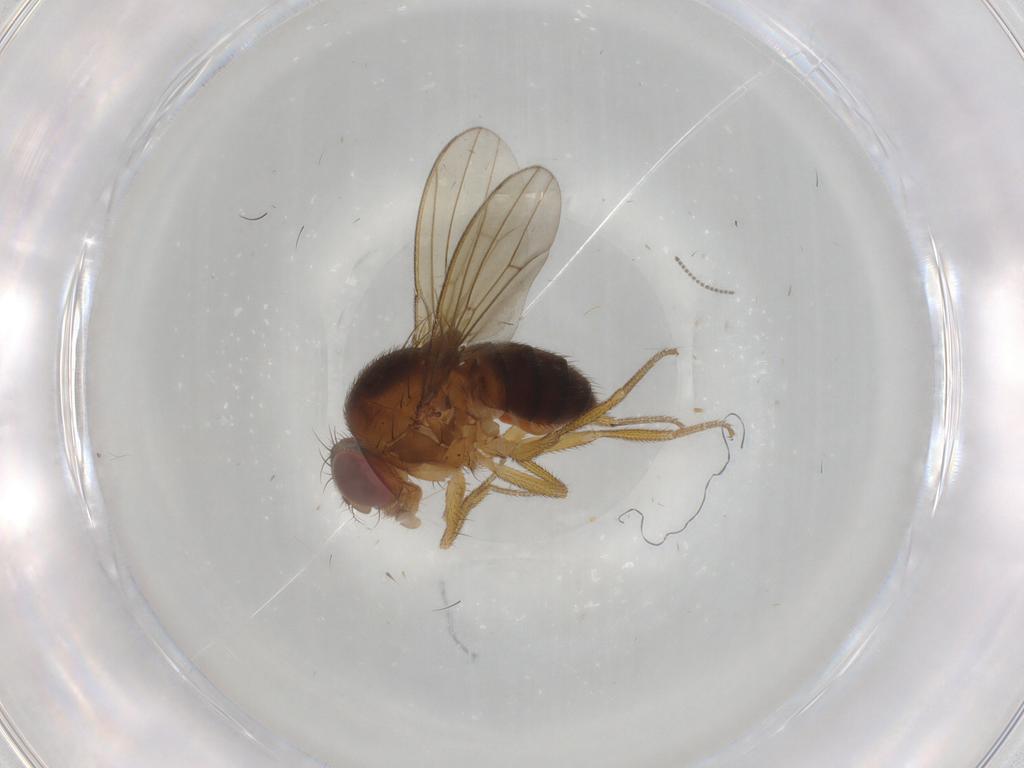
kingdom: Animalia
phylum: Arthropoda
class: Insecta
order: Diptera
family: Drosophilidae
